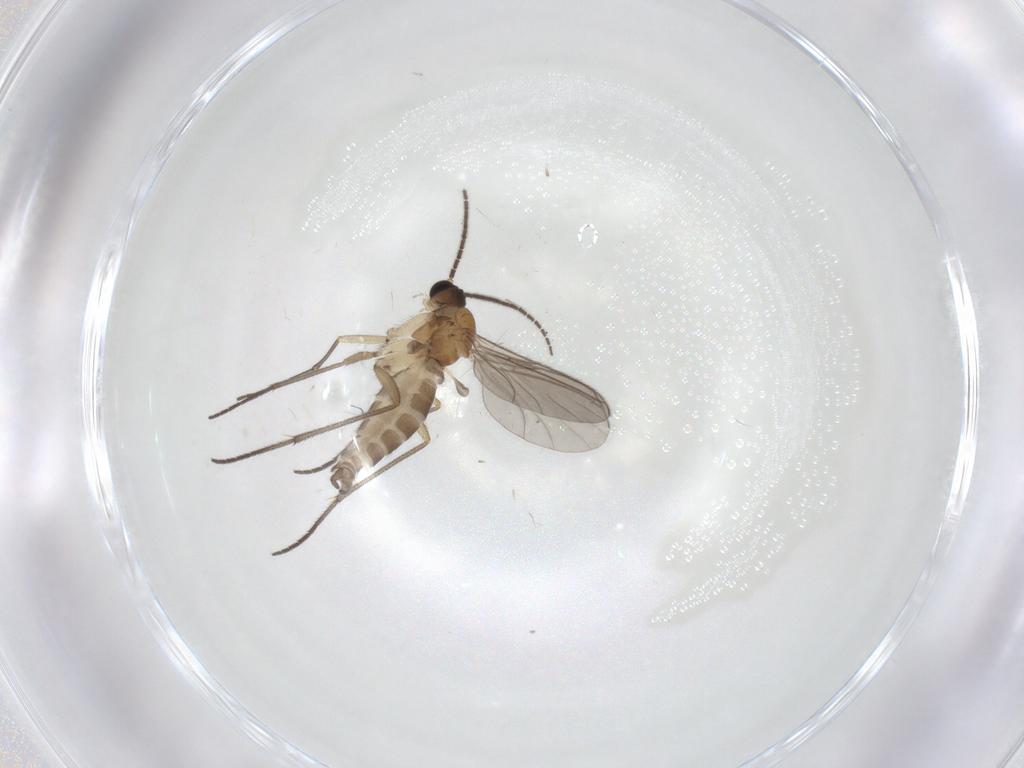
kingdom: Animalia
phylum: Arthropoda
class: Insecta
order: Diptera
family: Sciaridae
